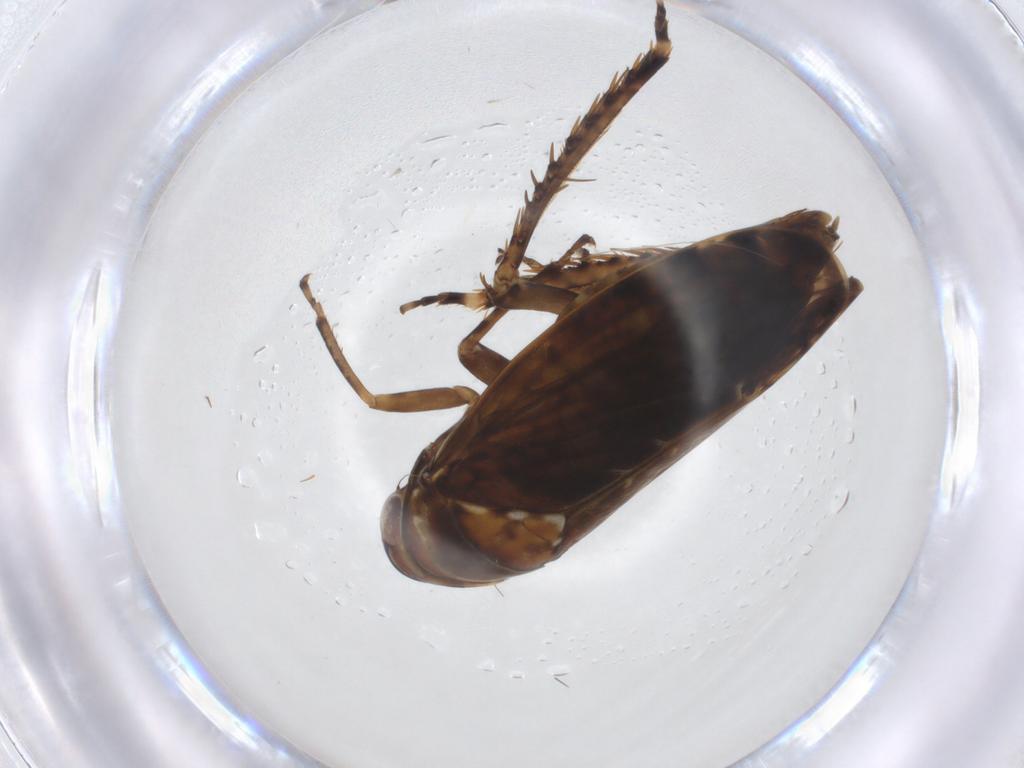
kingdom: Animalia
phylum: Arthropoda
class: Insecta
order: Hemiptera
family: Cicadellidae
